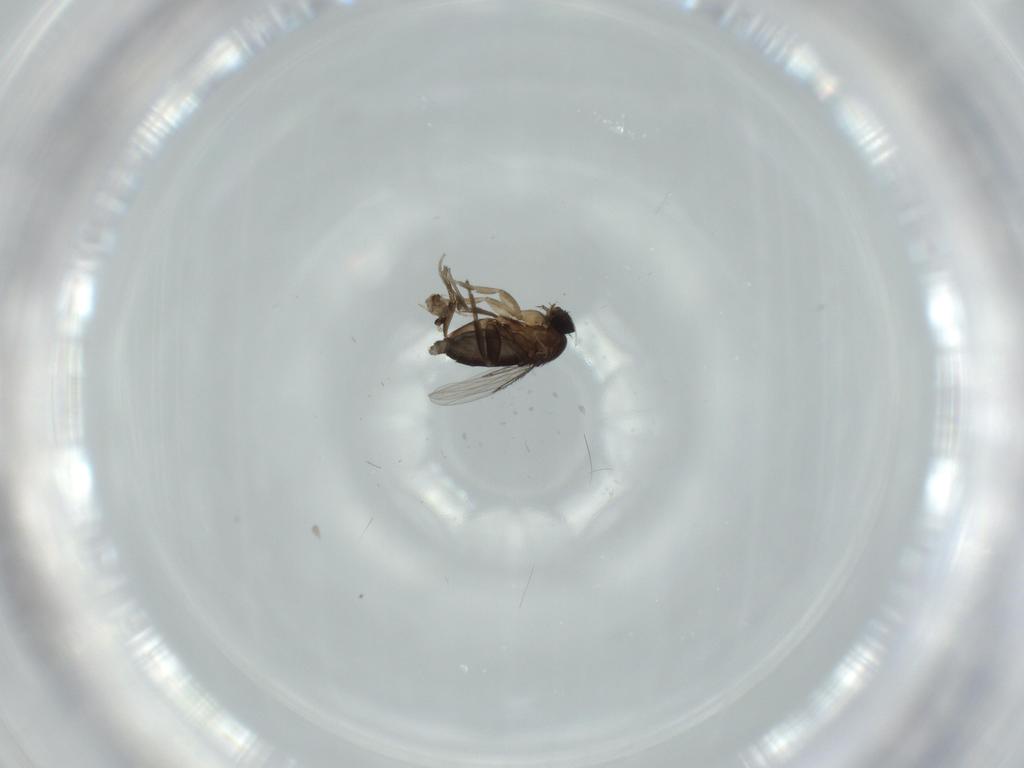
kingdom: Animalia
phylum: Arthropoda
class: Insecta
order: Diptera
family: Phoridae
